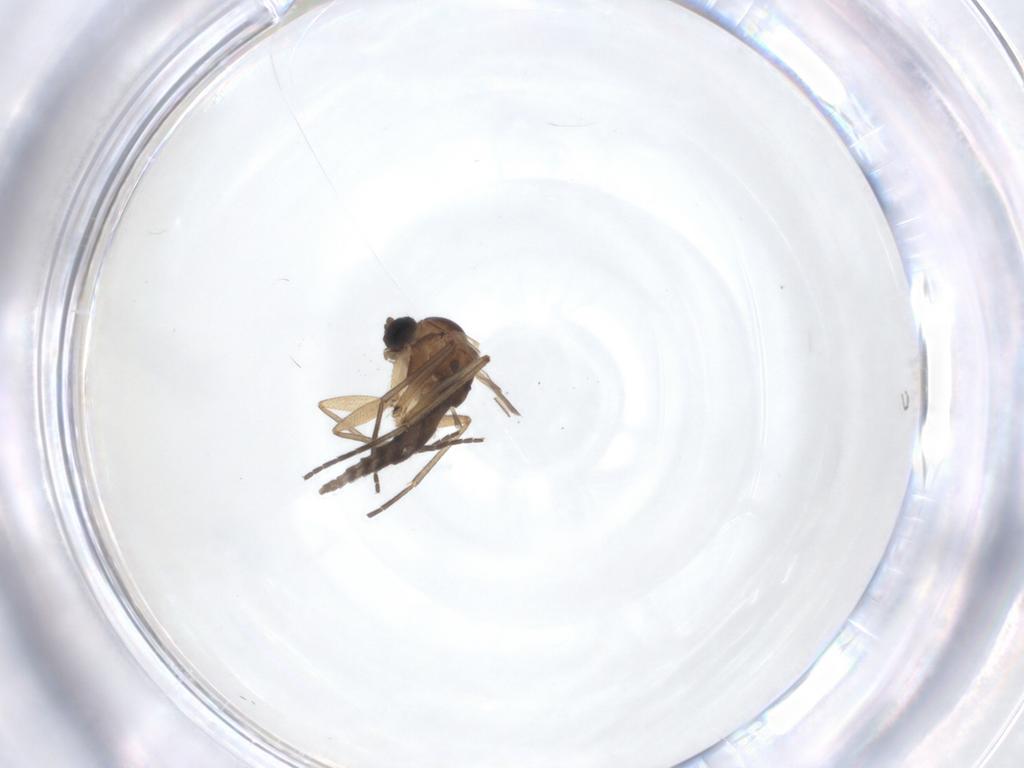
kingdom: Animalia
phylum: Arthropoda
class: Insecta
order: Diptera
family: Sciaridae
